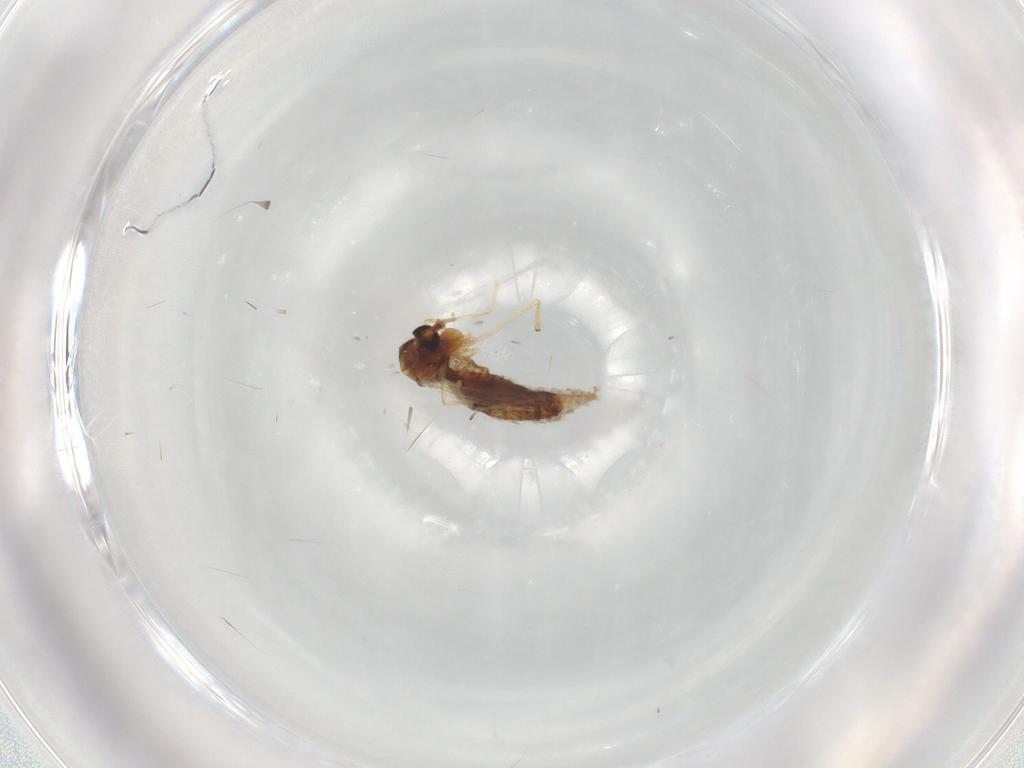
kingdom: Animalia
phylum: Arthropoda
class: Insecta
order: Diptera
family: Chironomidae
